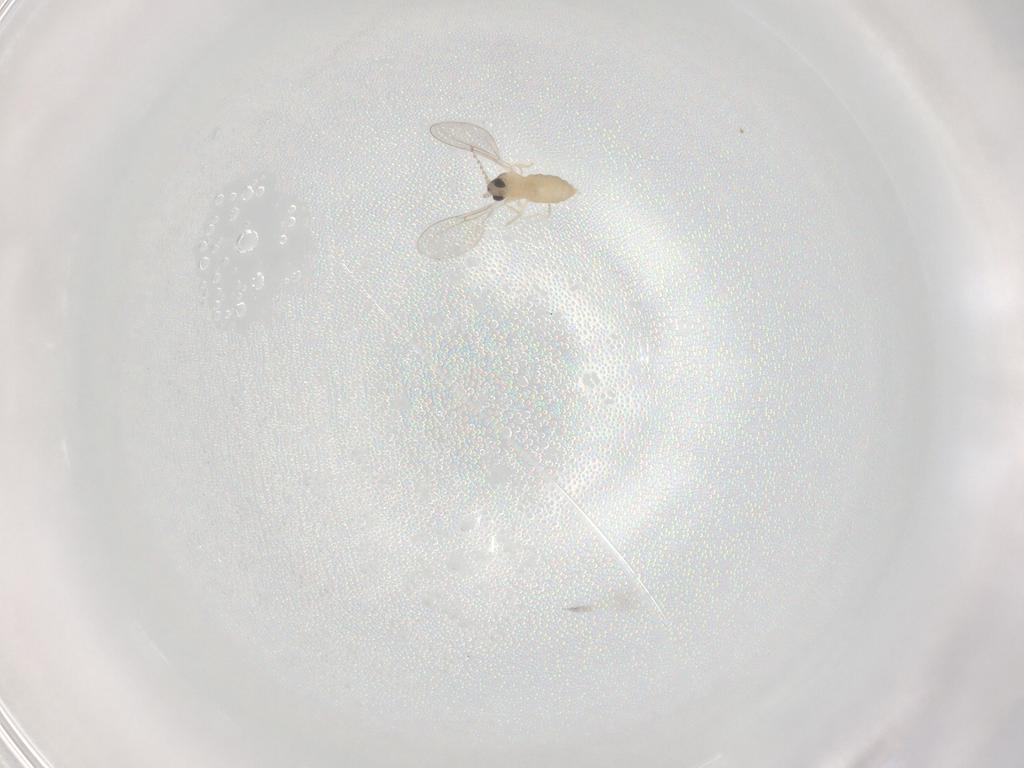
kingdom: Animalia
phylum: Arthropoda
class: Insecta
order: Diptera
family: Cecidomyiidae
